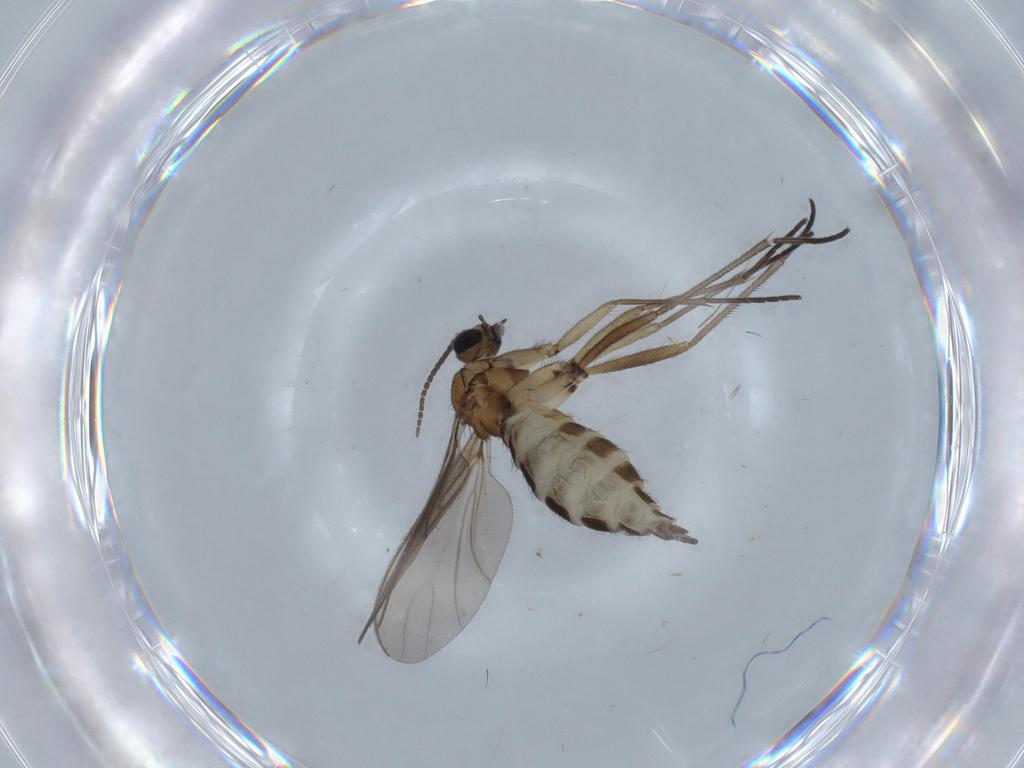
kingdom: Animalia
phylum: Arthropoda
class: Insecta
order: Diptera
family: Sciaridae
